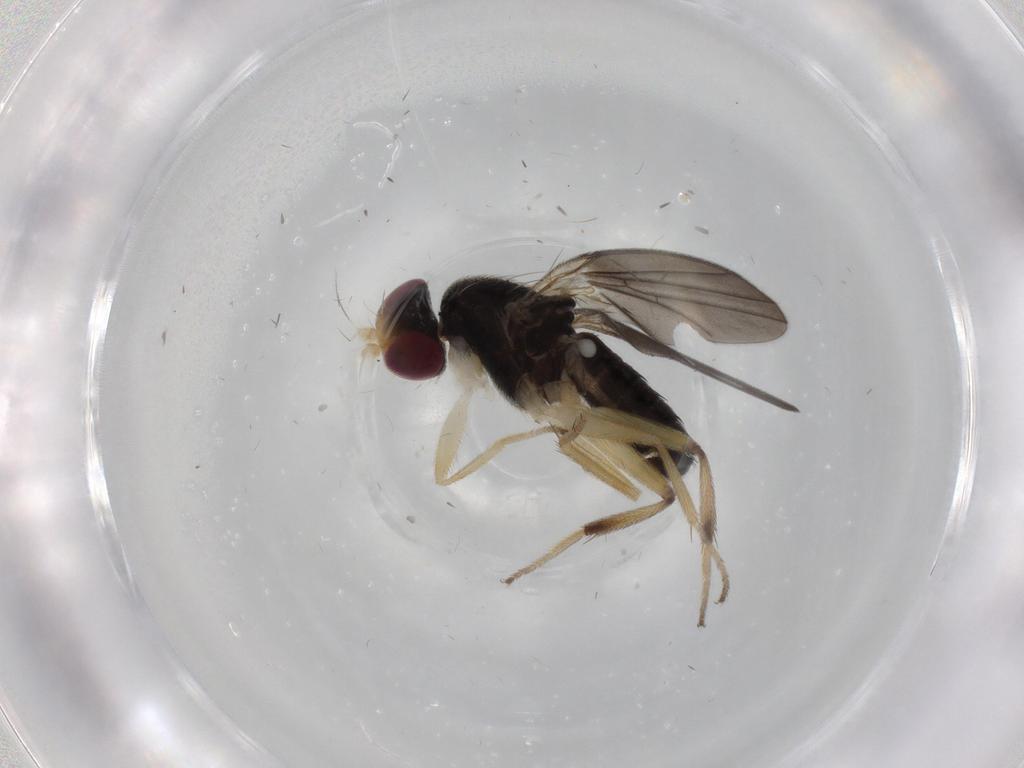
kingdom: Animalia
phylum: Arthropoda
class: Insecta
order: Diptera
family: Clusiidae
